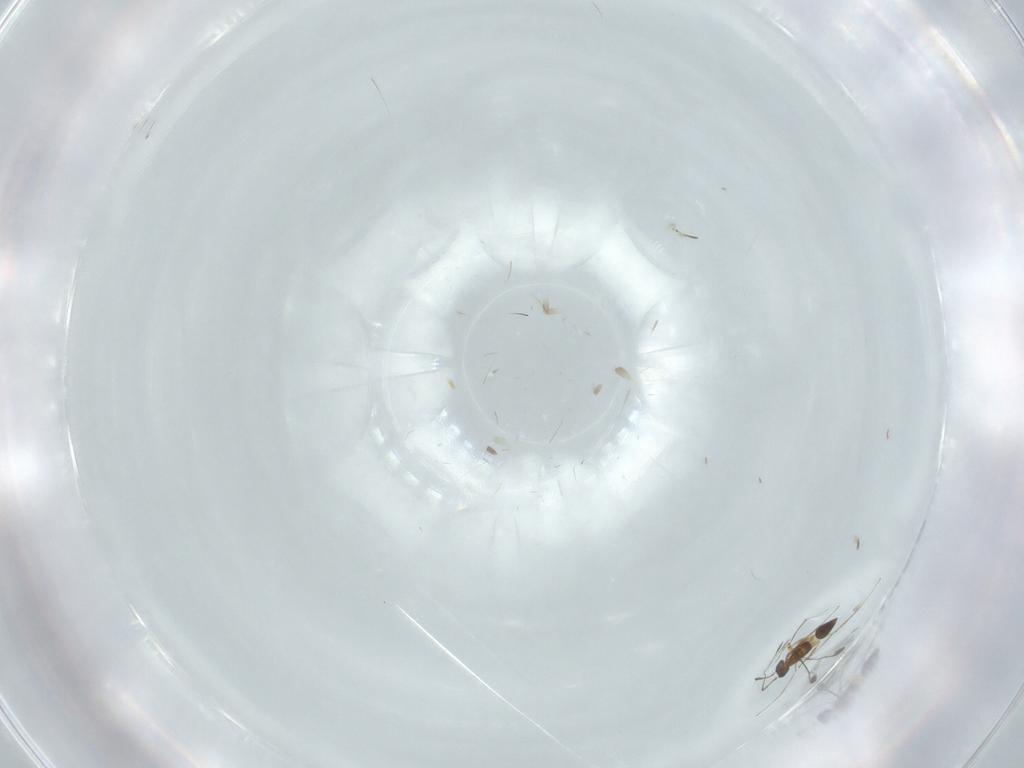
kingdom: Animalia
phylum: Arthropoda
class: Insecta
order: Hymenoptera
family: Mymaridae
